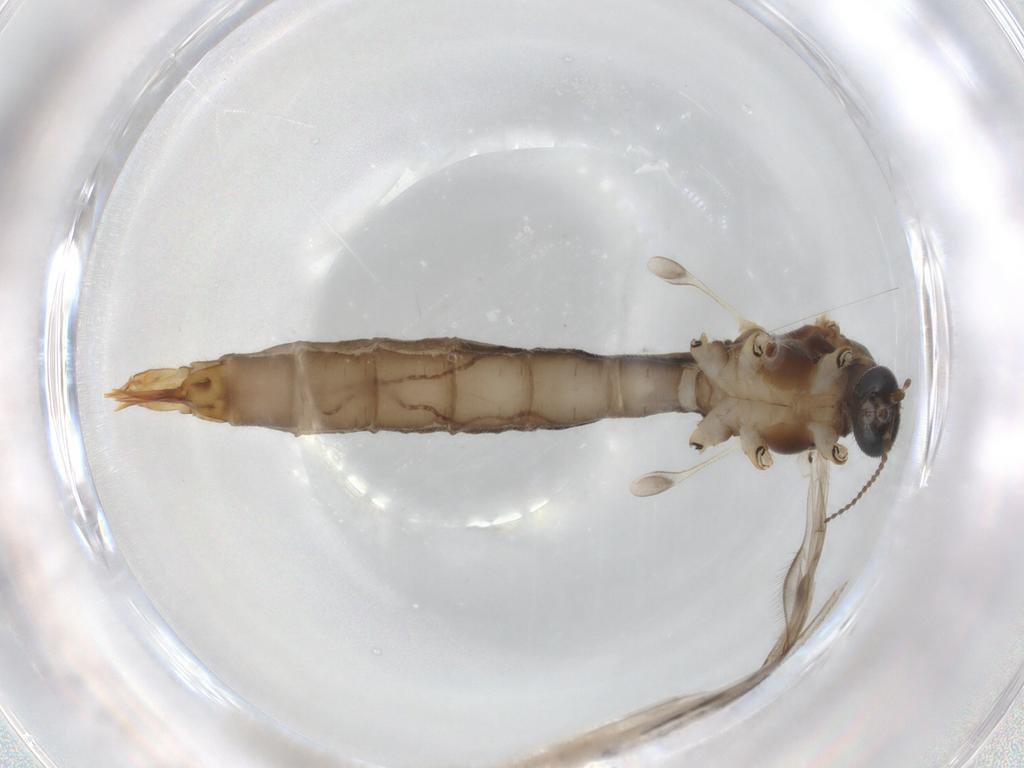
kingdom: Animalia
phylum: Arthropoda
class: Insecta
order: Diptera
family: Limoniidae
